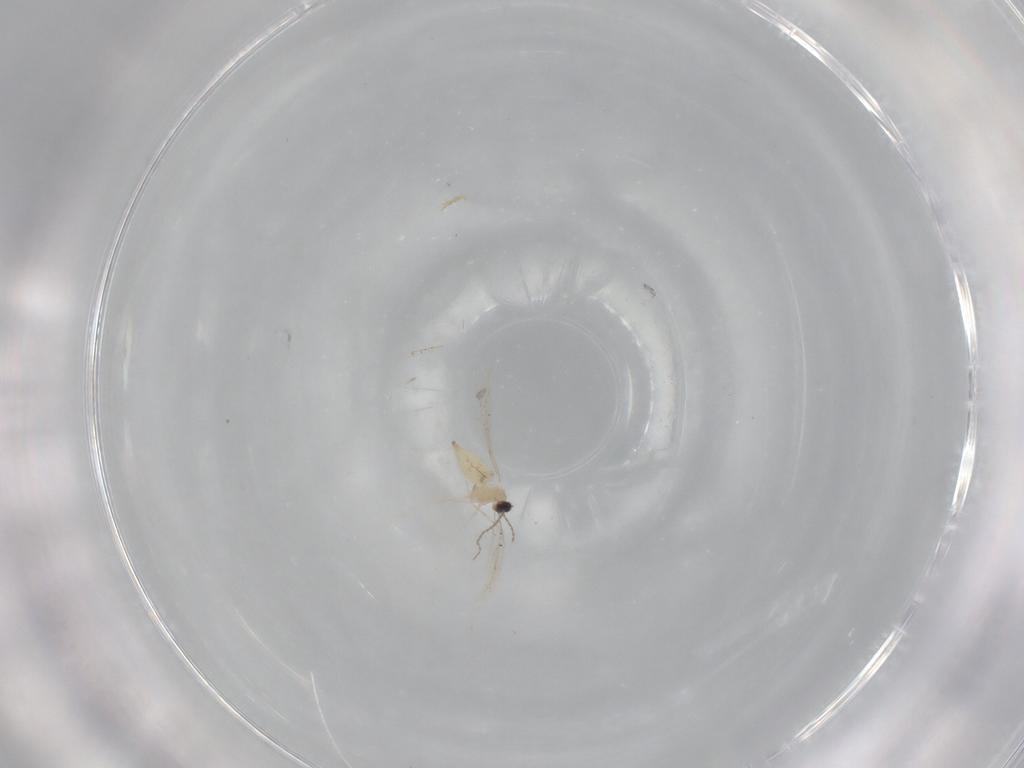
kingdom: Animalia
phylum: Arthropoda
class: Insecta
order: Diptera
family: Cecidomyiidae
